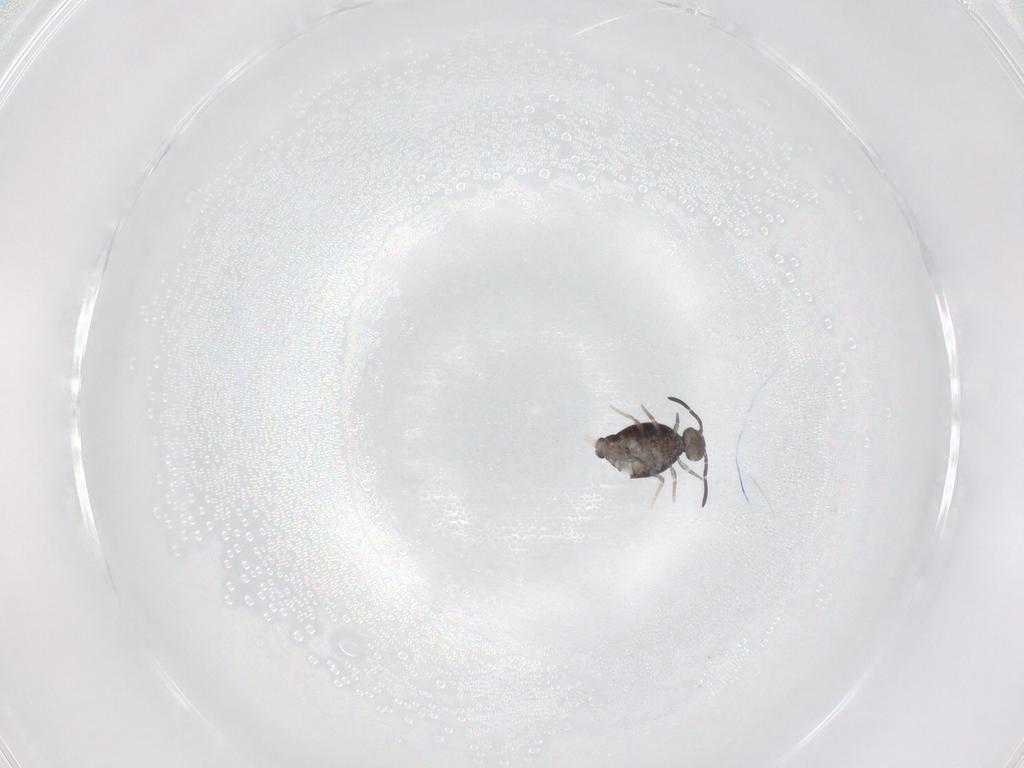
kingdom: Animalia
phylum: Arthropoda
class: Collembola
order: Symphypleona
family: Katiannidae
